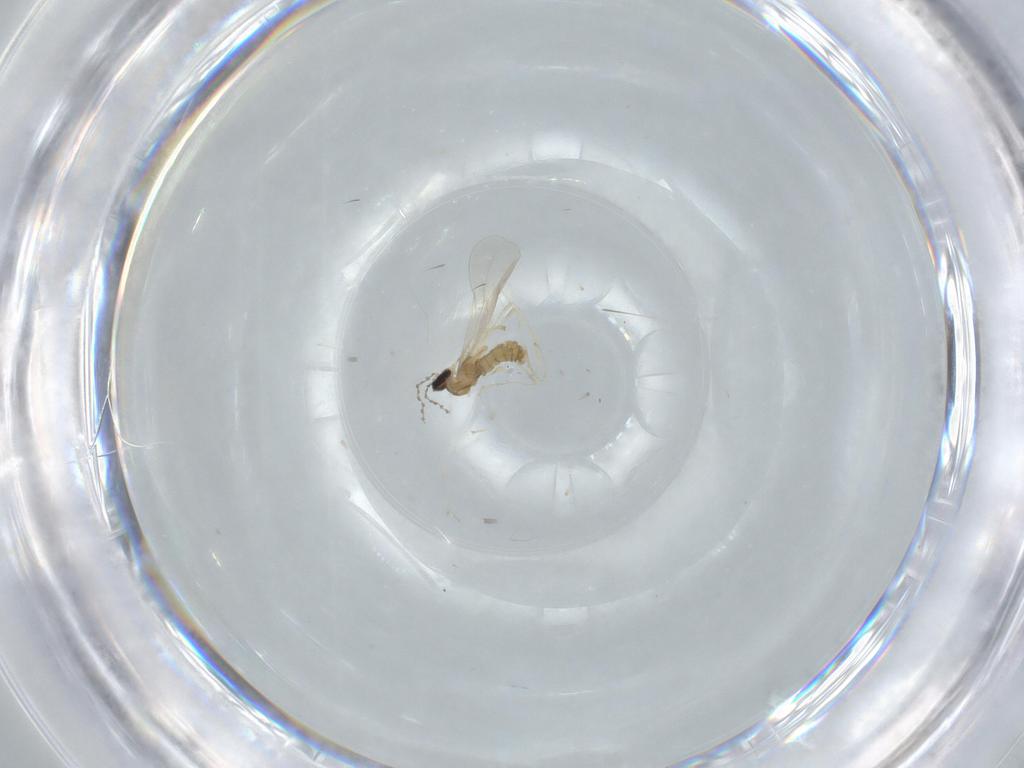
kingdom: Animalia
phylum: Arthropoda
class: Insecta
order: Diptera
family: Cecidomyiidae
